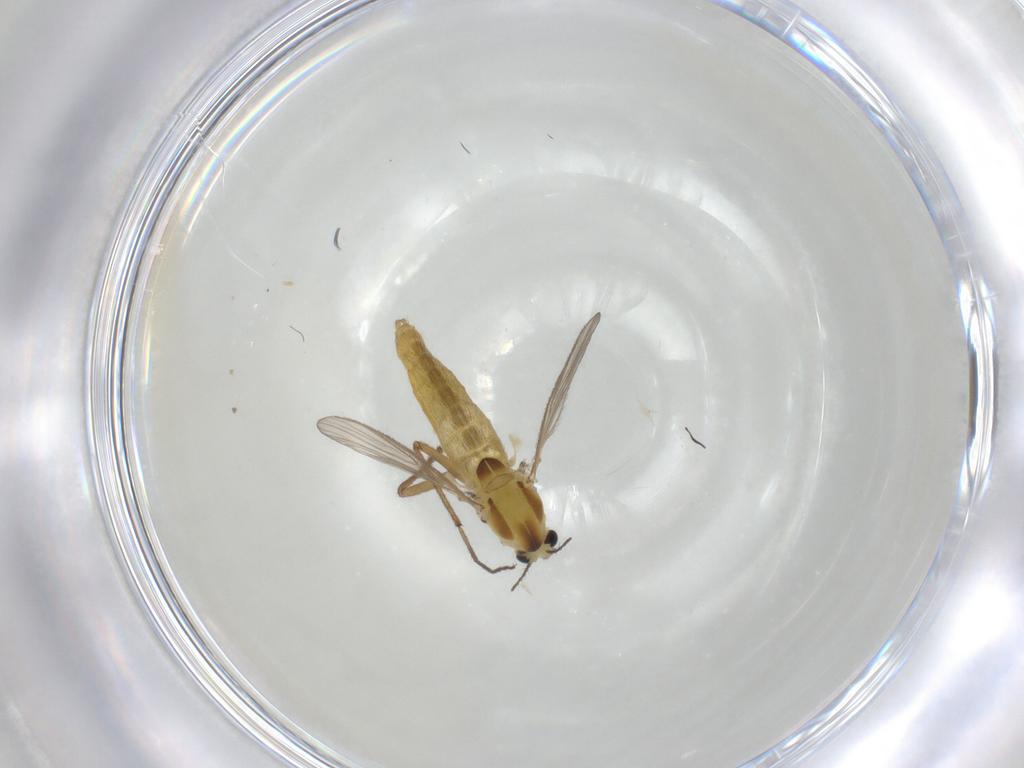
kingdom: Animalia
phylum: Arthropoda
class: Insecta
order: Diptera
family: Chironomidae
